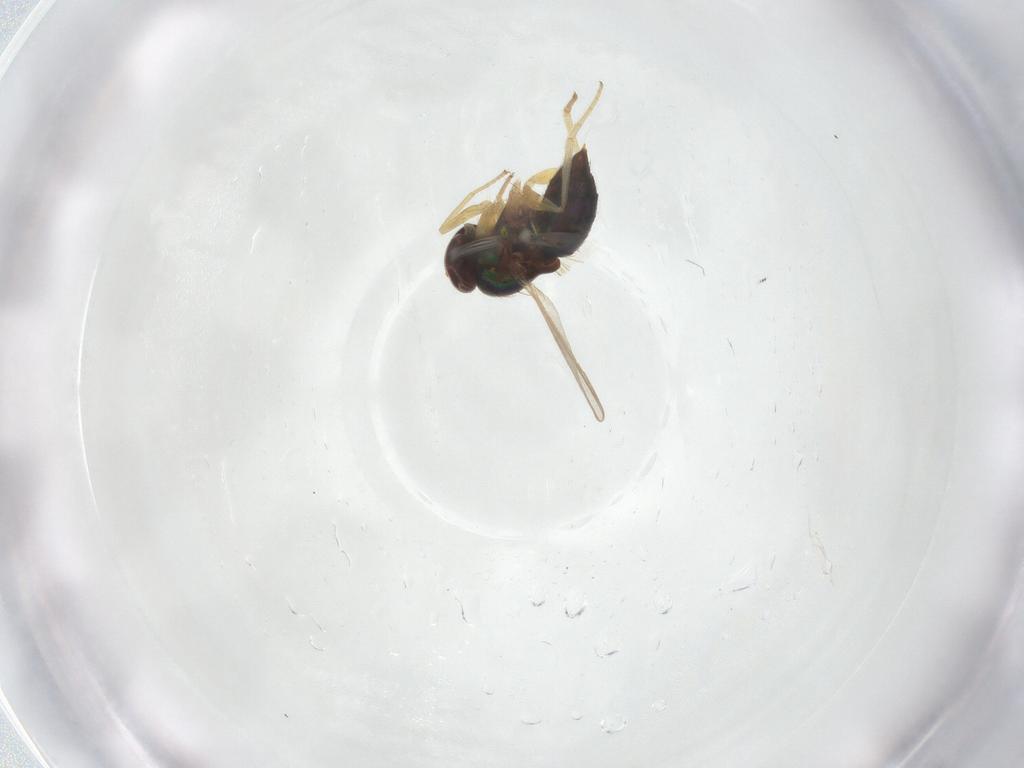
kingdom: Animalia
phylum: Arthropoda
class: Insecta
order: Diptera
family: Dolichopodidae
